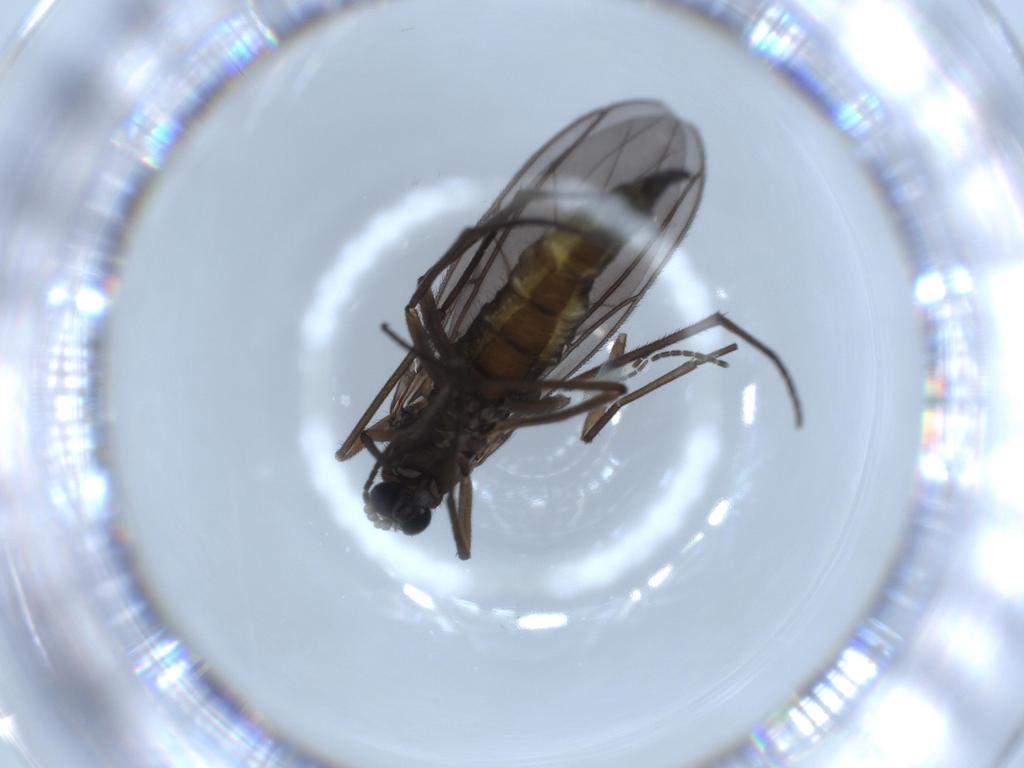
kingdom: Animalia
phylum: Arthropoda
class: Insecta
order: Diptera
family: Sciaridae
